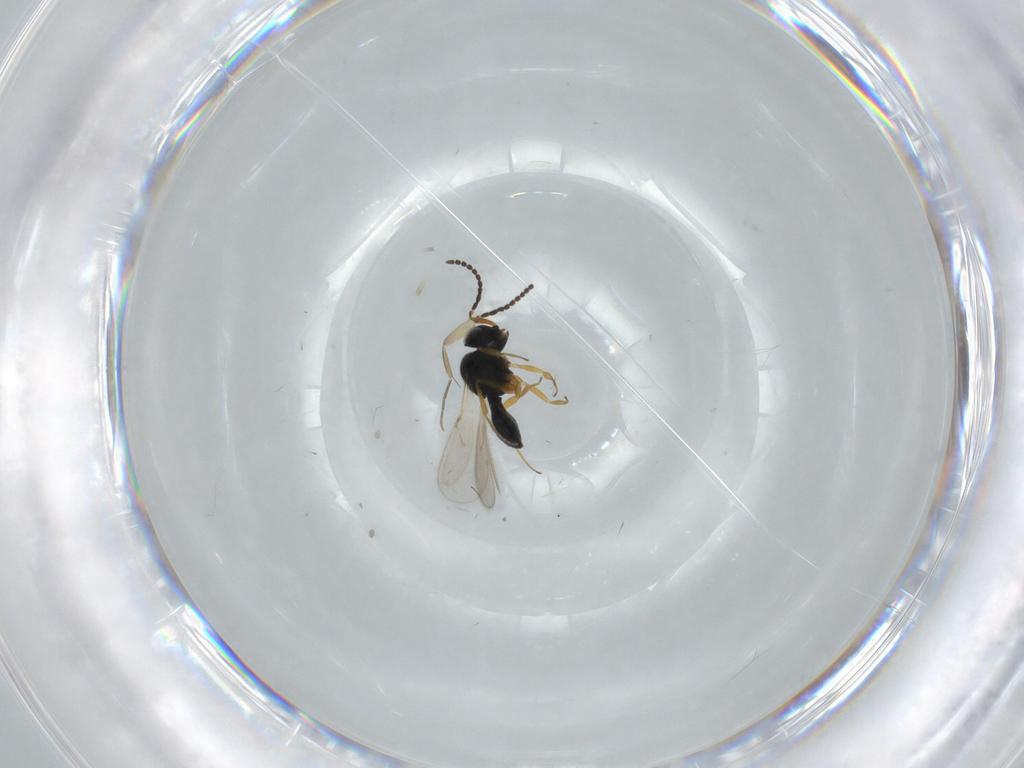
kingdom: Animalia
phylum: Arthropoda
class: Insecta
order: Hymenoptera
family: Scelionidae
